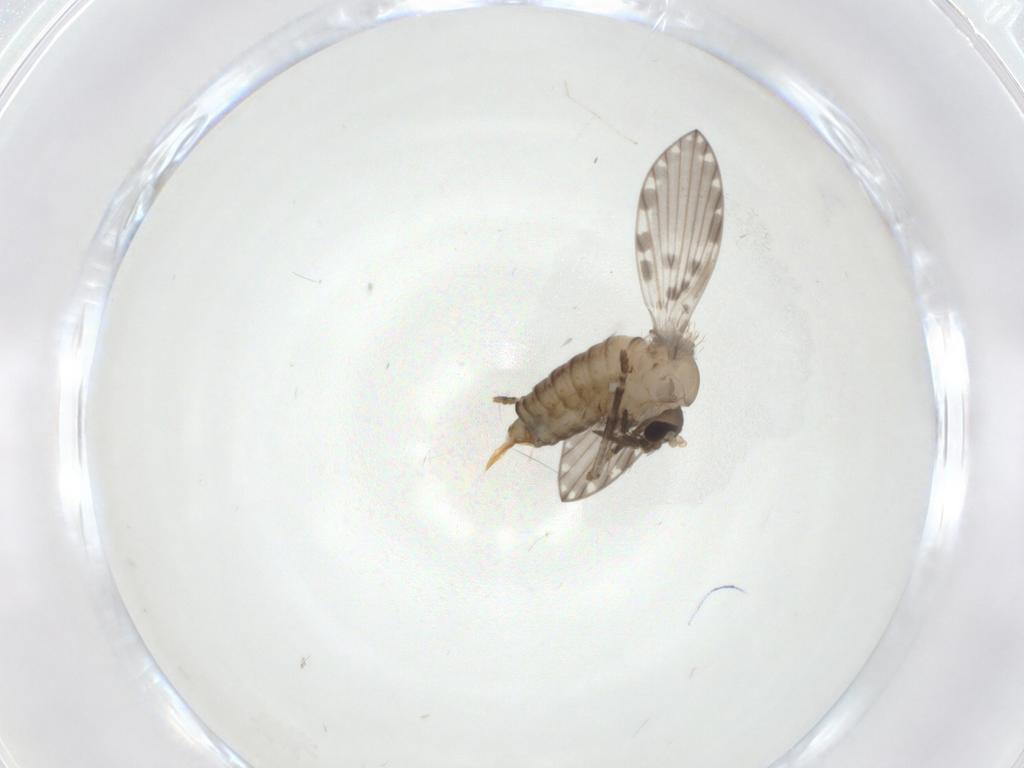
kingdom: Animalia
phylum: Arthropoda
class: Insecta
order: Diptera
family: Psychodidae
